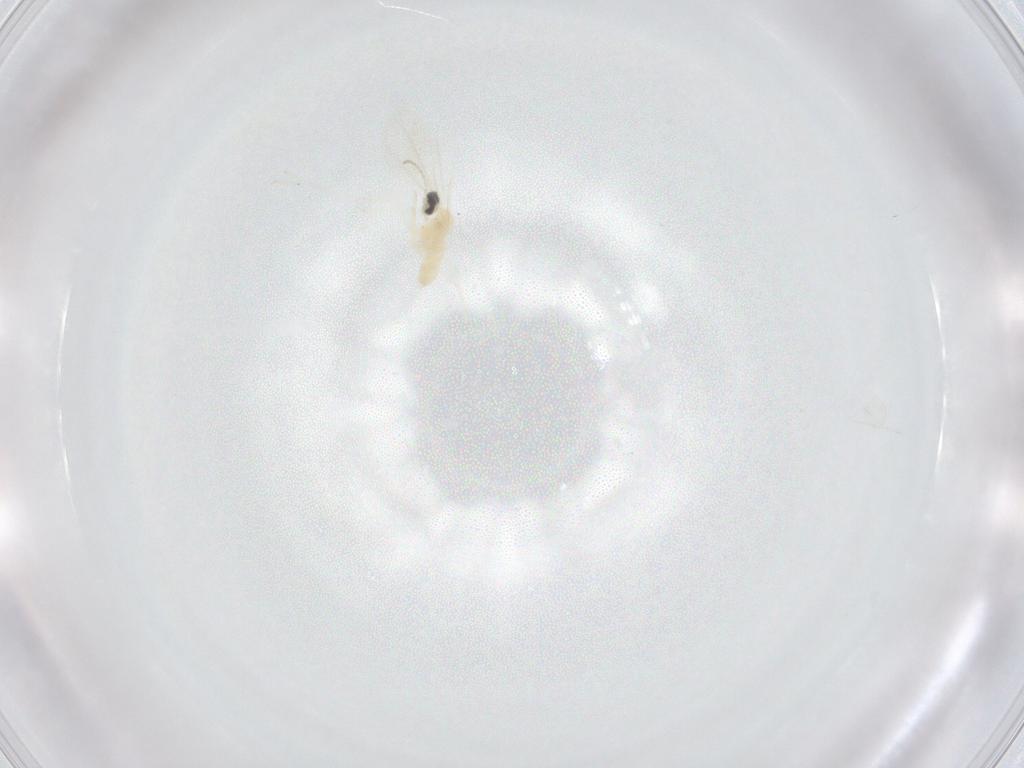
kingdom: Animalia
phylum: Arthropoda
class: Insecta
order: Diptera
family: Cecidomyiidae
